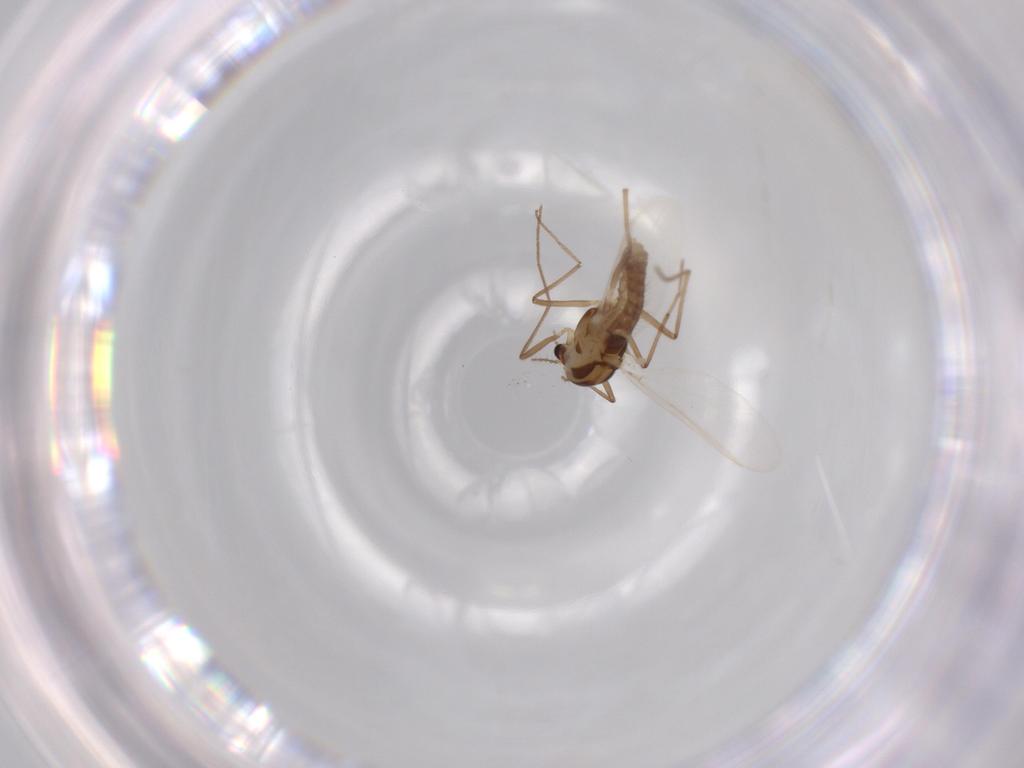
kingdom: Animalia
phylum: Arthropoda
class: Insecta
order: Diptera
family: Chironomidae
